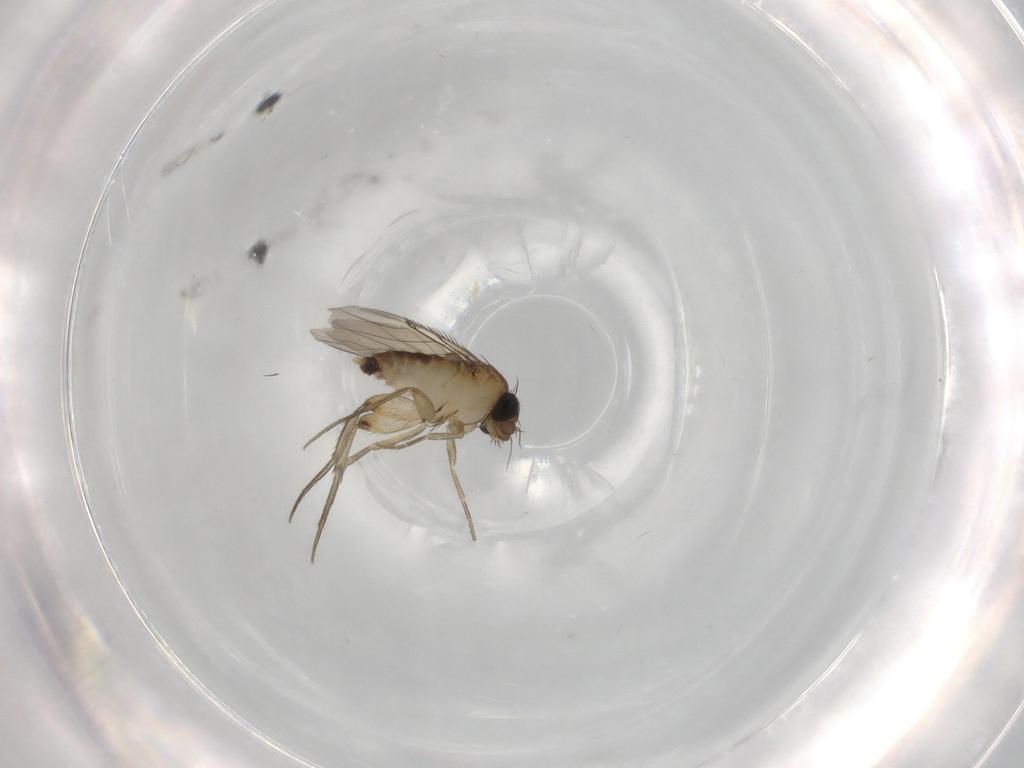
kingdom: Animalia
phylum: Arthropoda
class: Insecta
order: Diptera
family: Phoridae
